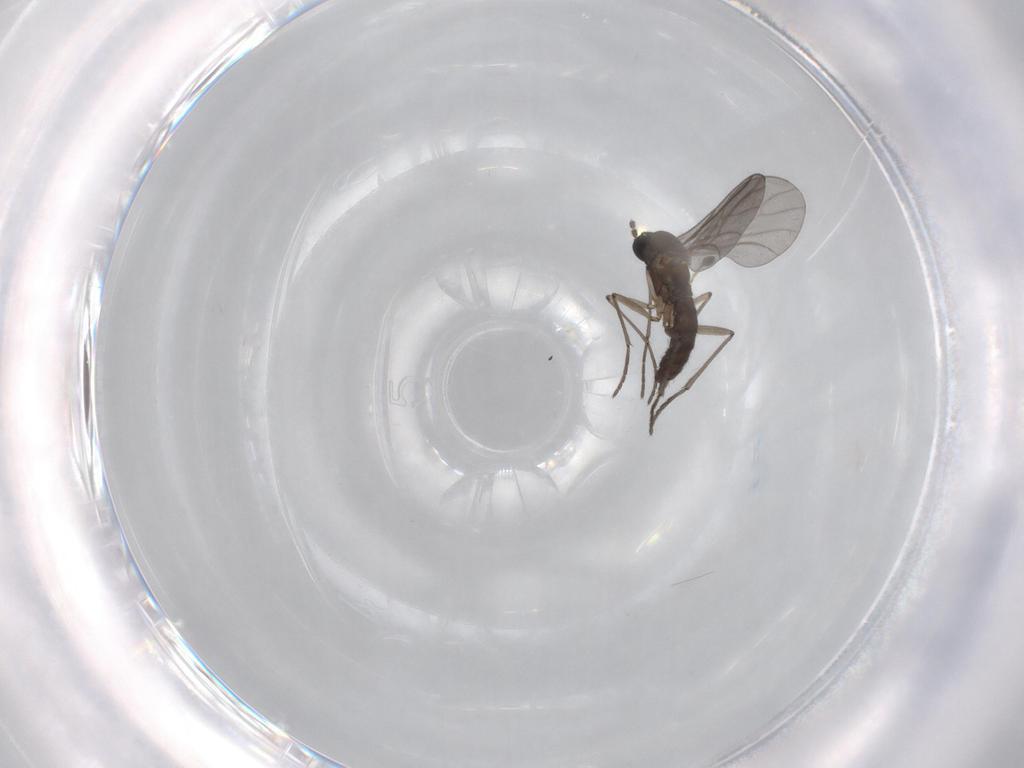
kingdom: Animalia
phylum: Arthropoda
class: Insecta
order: Diptera
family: Sciaridae
